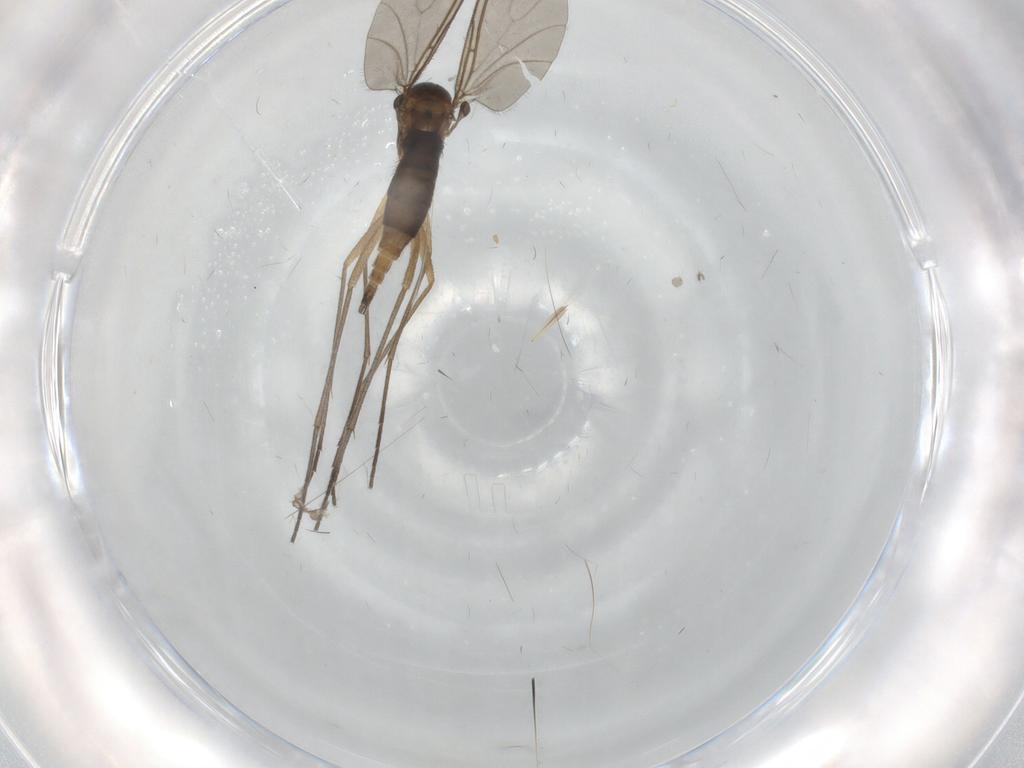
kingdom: Animalia
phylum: Arthropoda
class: Insecta
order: Diptera
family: Sciaridae
